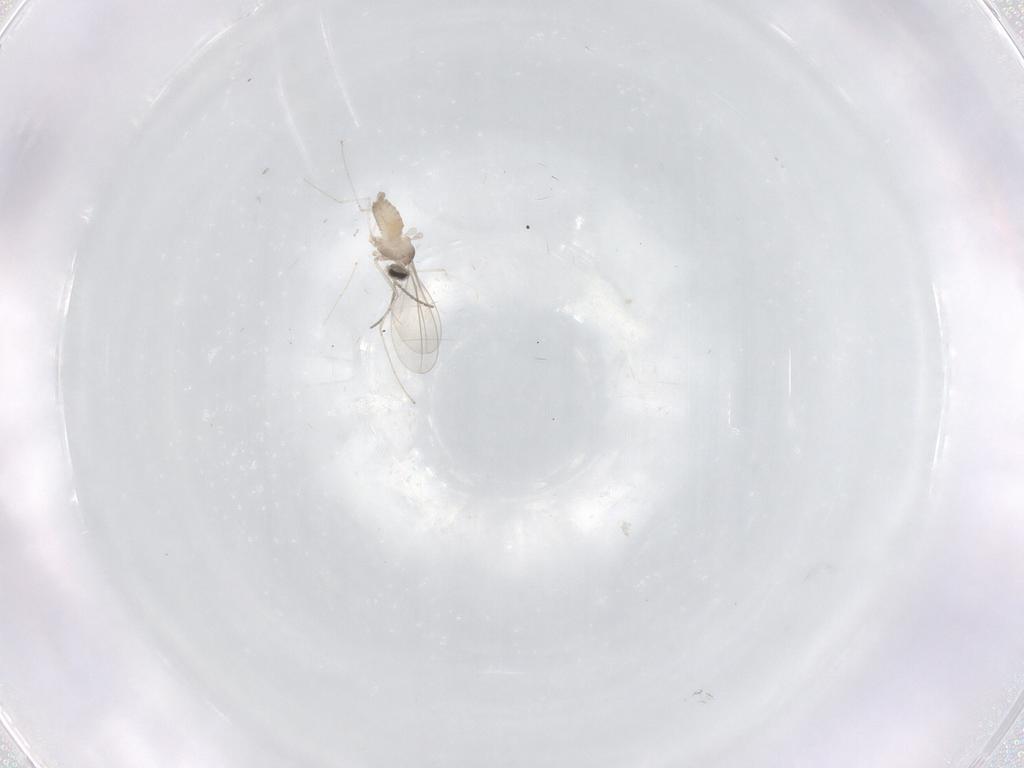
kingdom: Animalia
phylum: Arthropoda
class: Insecta
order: Diptera
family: Cecidomyiidae
